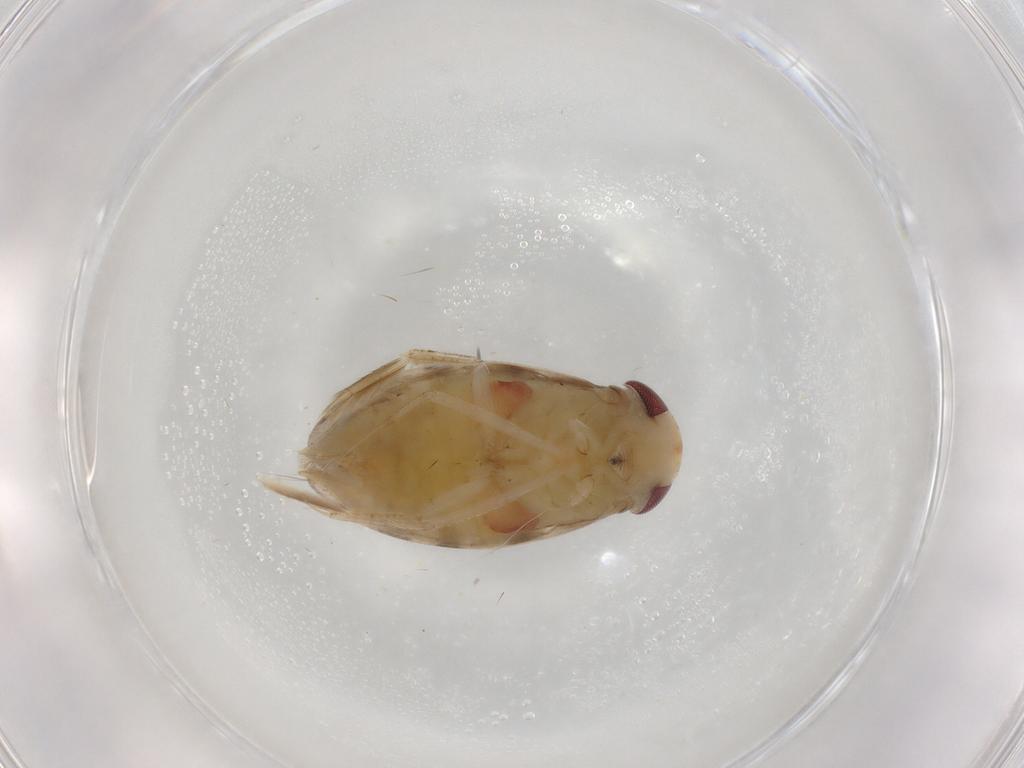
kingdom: Animalia
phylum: Arthropoda
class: Insecta
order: Hemiptera
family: Corixidae
